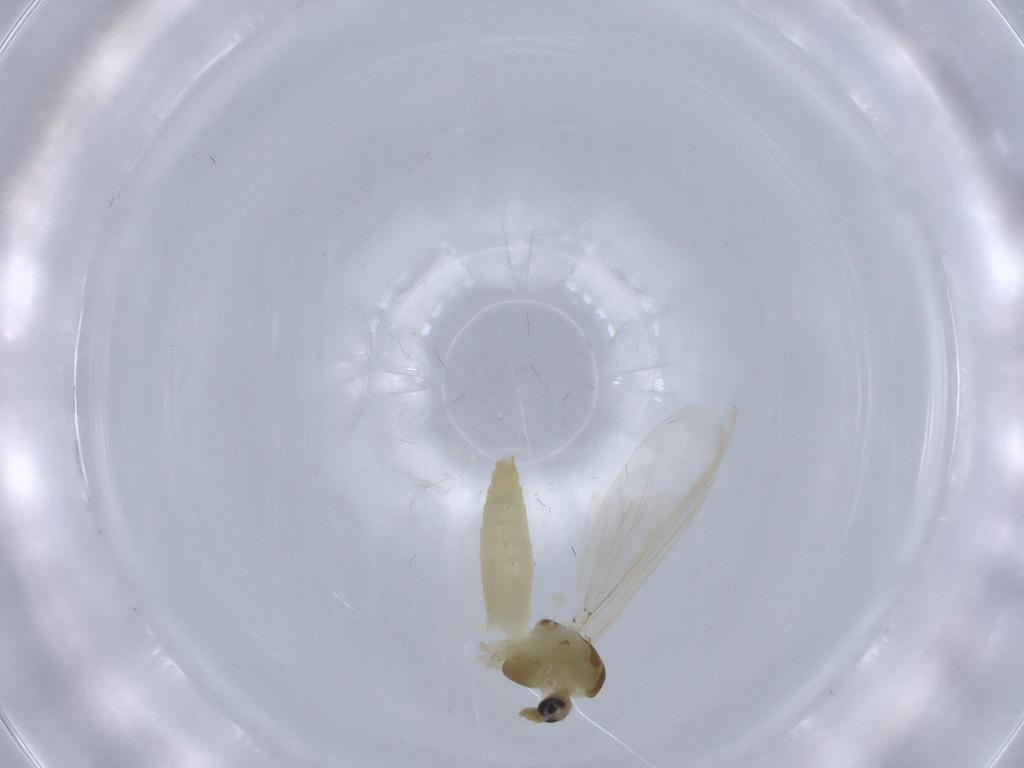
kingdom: Animalia
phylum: Arthropoda
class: Insecta
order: Diptera
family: Chironomidae
